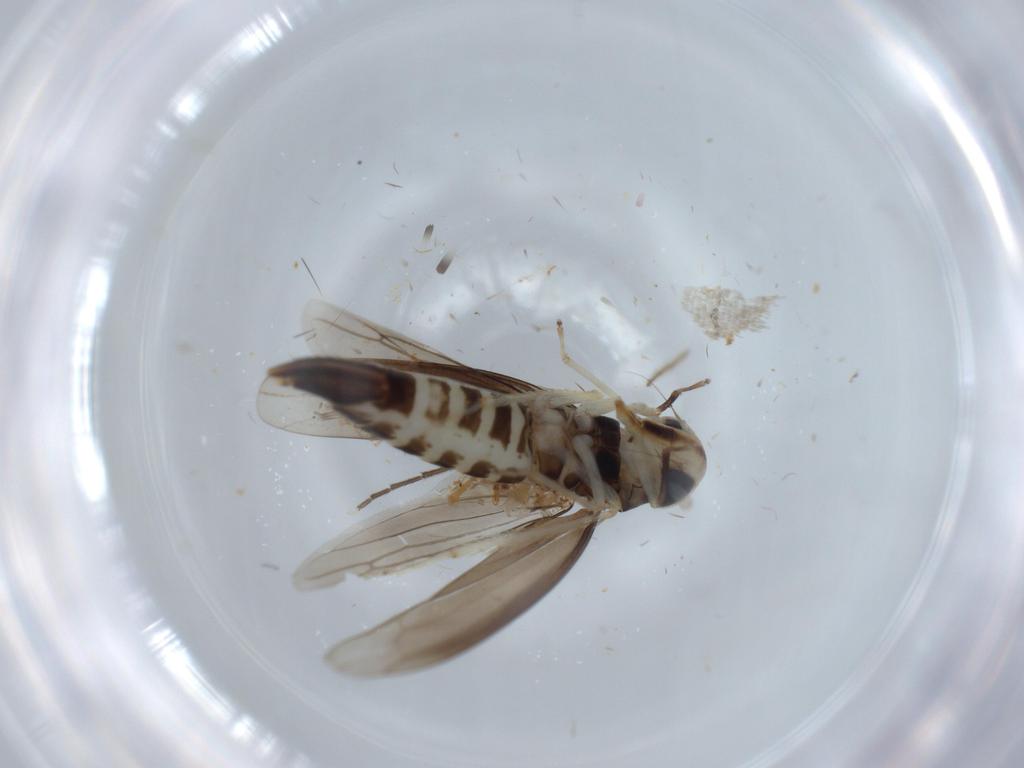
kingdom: Animalia
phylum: Arthropoda
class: Insecta
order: Hemiptera
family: Cicadellidae
